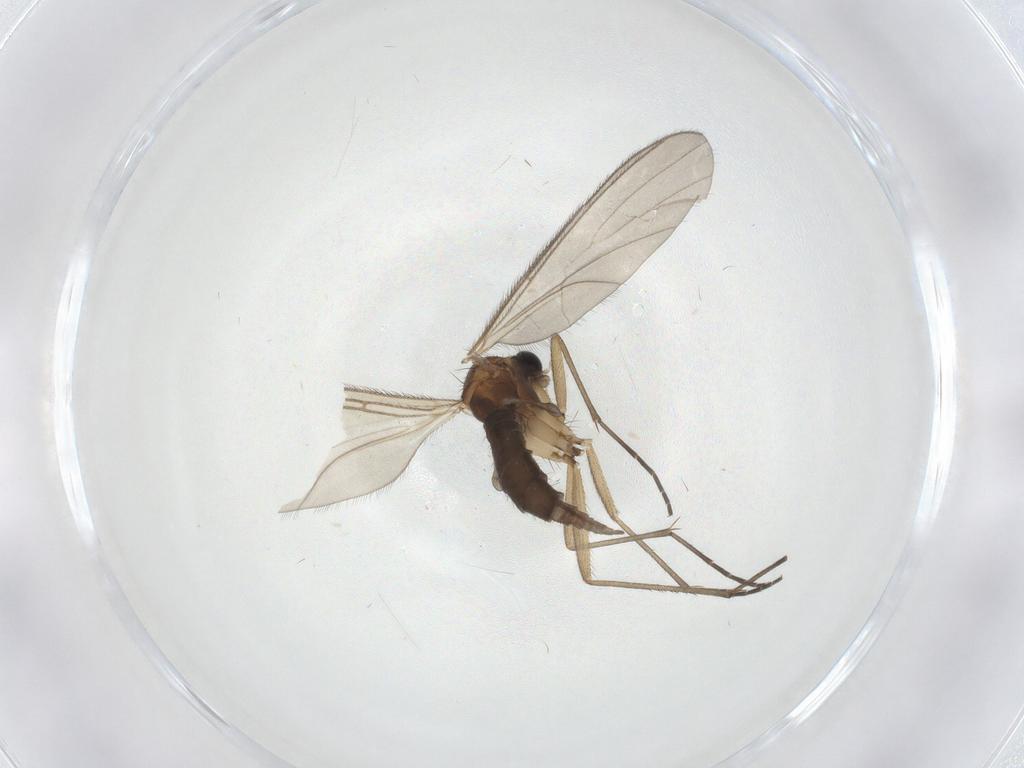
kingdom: Animalia
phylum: Arthropoda
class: Insecta
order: Diptera
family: Sciaridae
